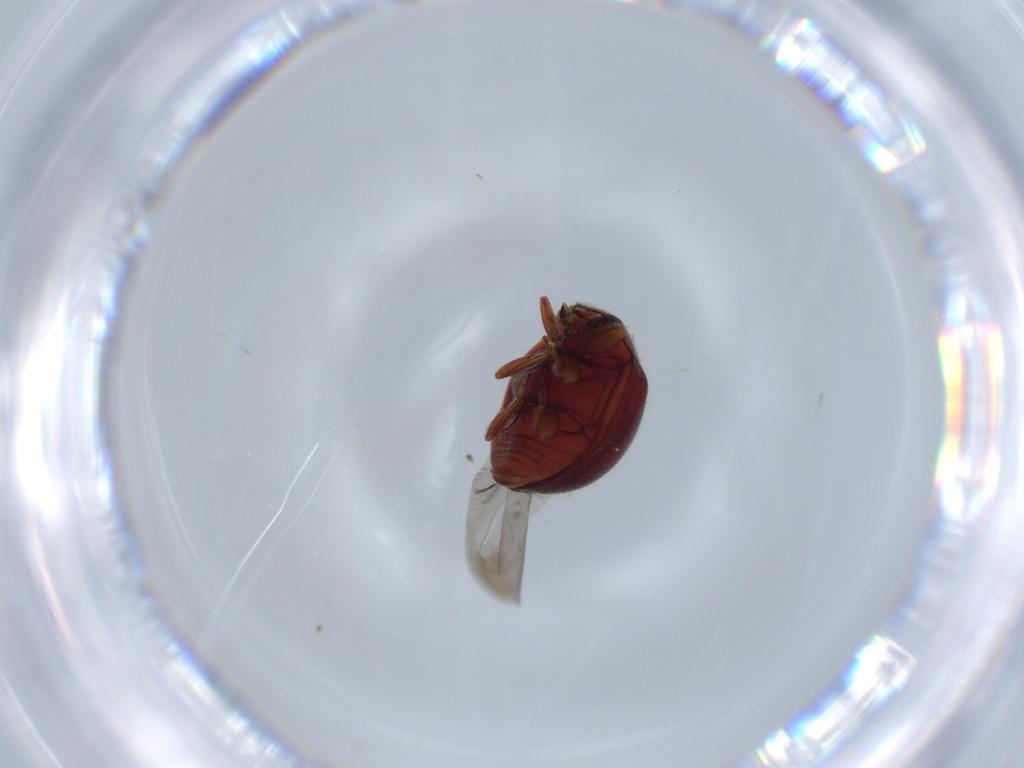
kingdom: Animalia
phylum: Arthropoda
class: Insecta
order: Coleoptera
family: Coccinellidae
